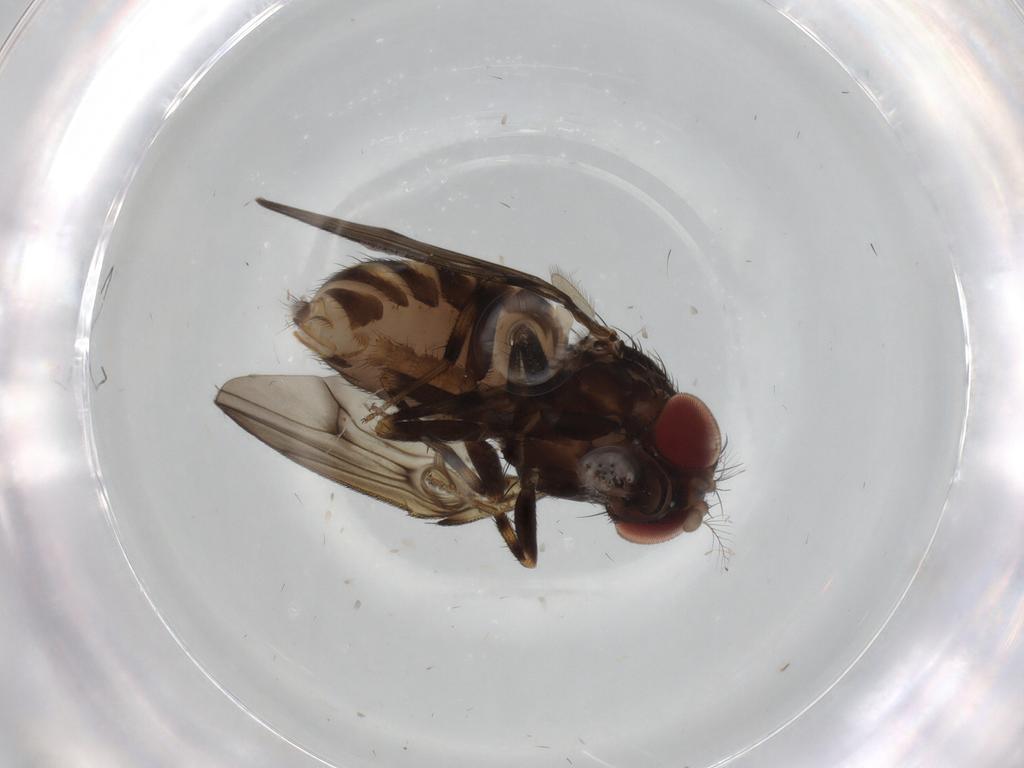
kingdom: Animalia
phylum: Arthropoda
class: Insecta
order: Diptera
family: Drosophilidae
